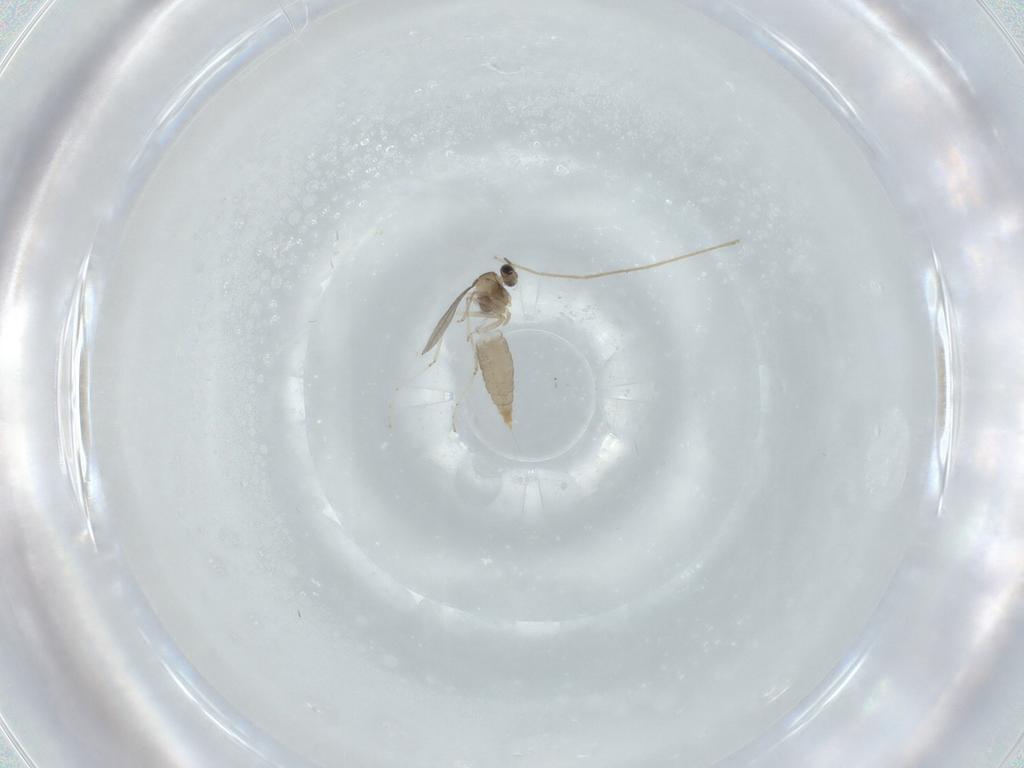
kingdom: Animalia
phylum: Arthropoda
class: Insecta
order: Diptera
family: Cecidomyiidae
